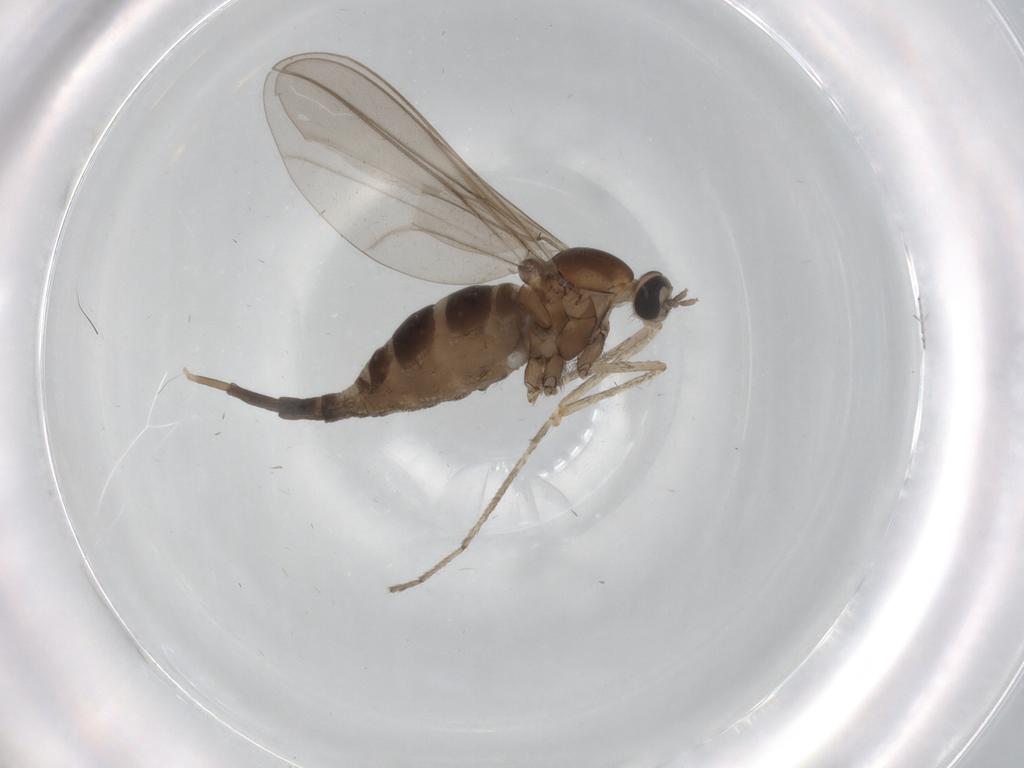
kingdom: Animalia
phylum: Arthropoda
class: Insecta
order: Diptera
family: Cecidomyiidae
